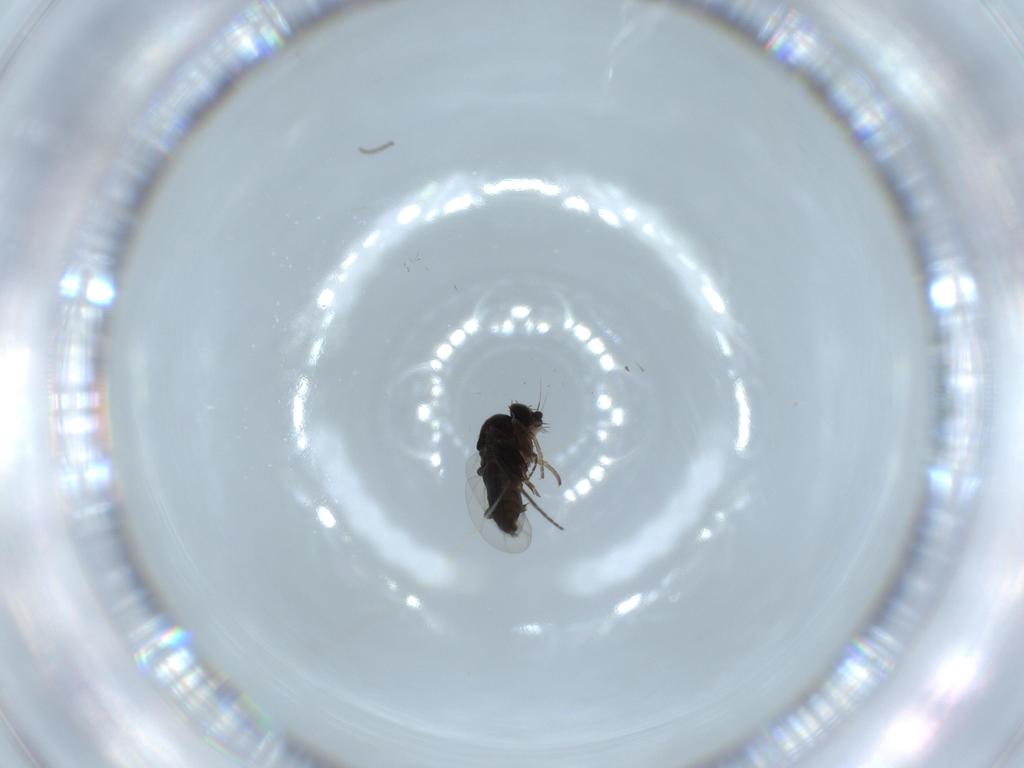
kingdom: Animalia
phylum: Arthropoda
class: Insecta
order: Diptera
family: Phoridae
